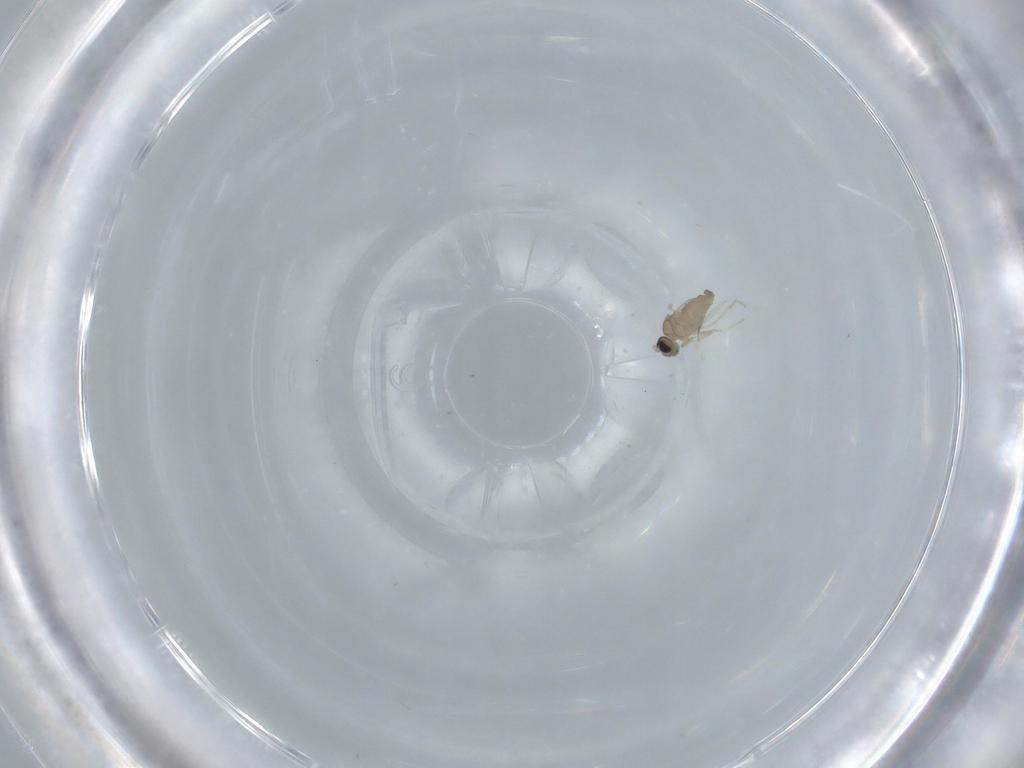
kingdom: Animalia
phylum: Arthropoda
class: Insecta
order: Diptera
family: Cecidomyiidae
